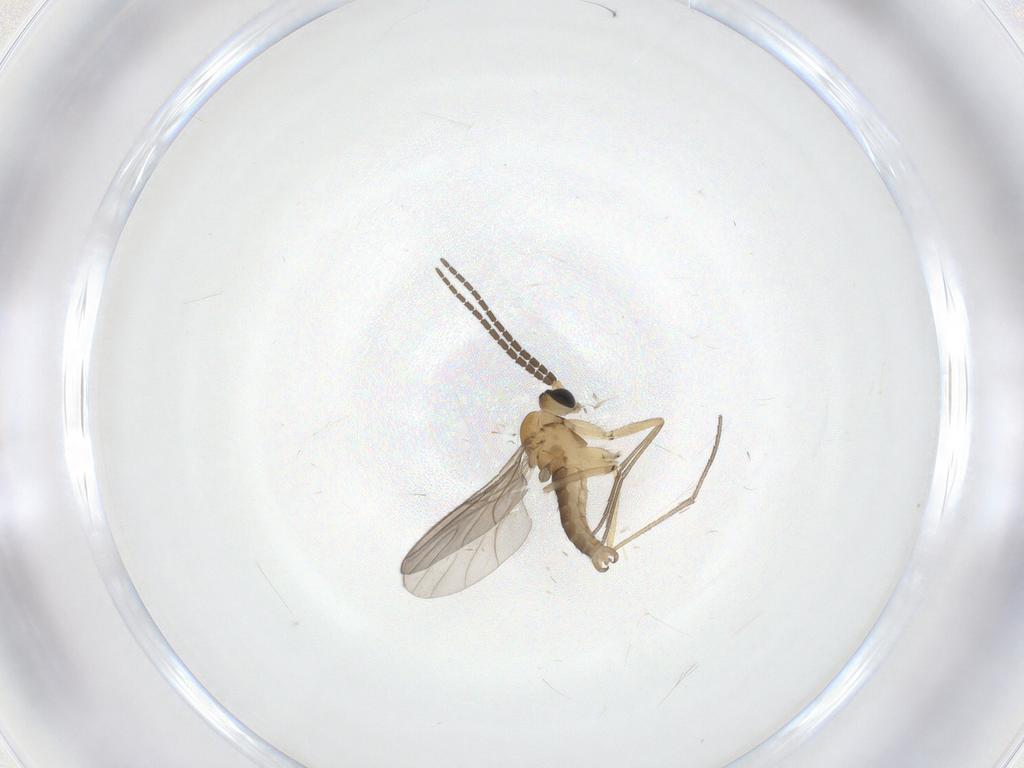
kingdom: Animalia
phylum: Arthropoda
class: Insecta
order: Diptera
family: Sciaridae
